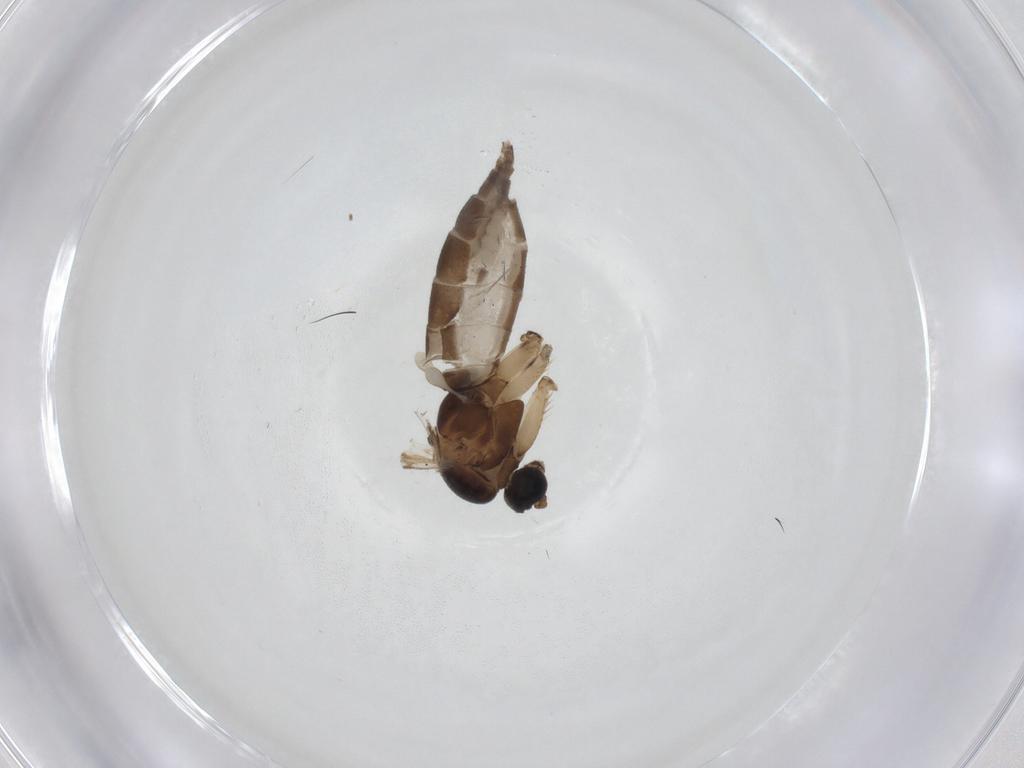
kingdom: Animalia
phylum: Arthropoda
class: Insecta
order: Diptera
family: Sciaridae
